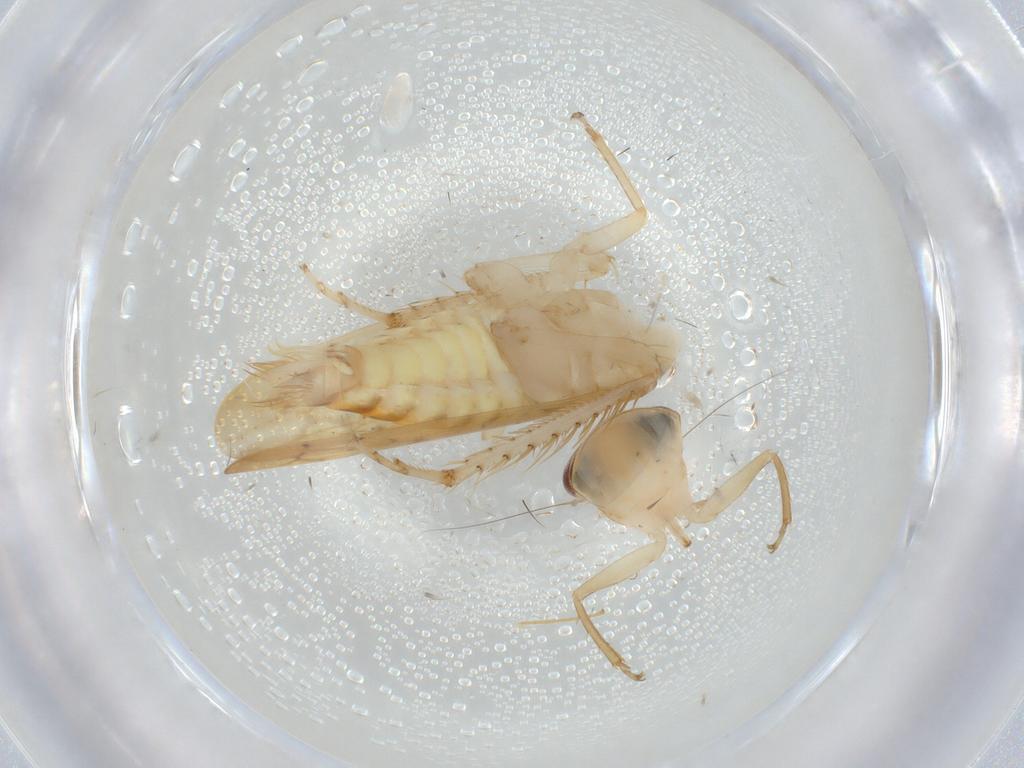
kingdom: Animalia
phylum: Arthropoda
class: Insecta
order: Hemiptera
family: Cicadellidae
